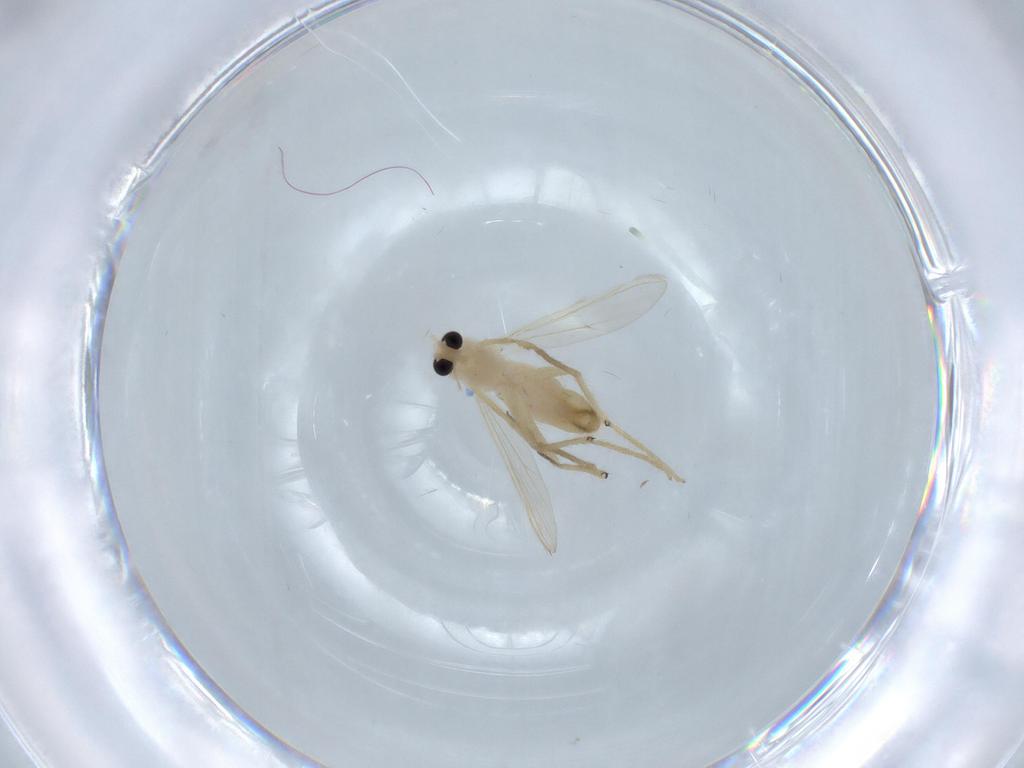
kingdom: Animalia
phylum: Arthropoda
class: Insecta
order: Diptera
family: Chironomidae
